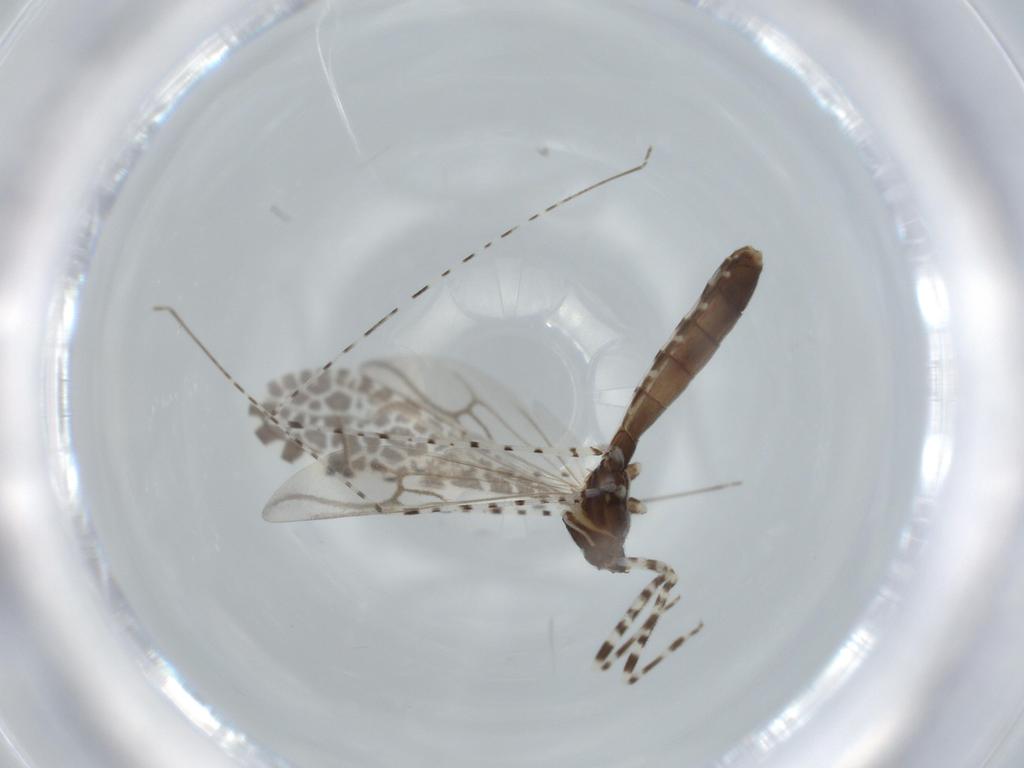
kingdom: Animalia
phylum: Arthropoda
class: Insecta
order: Hemiptera
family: Reduviidae
